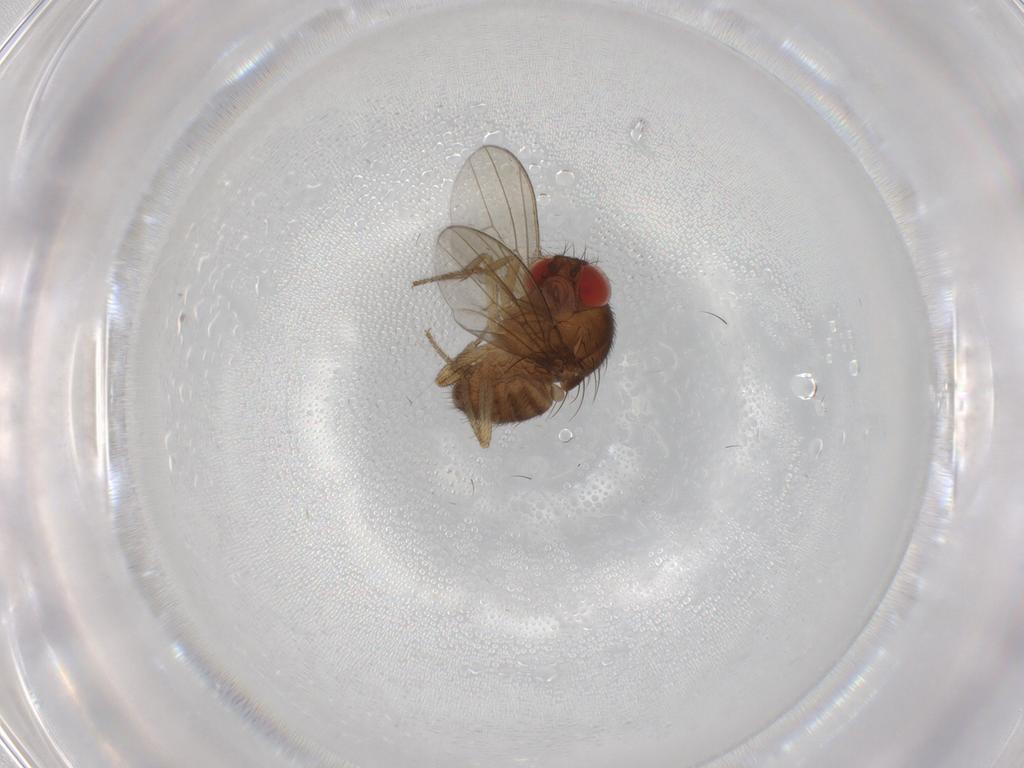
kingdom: Animalia
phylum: Arthropoda
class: Insecta
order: Diptera
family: Drosophilidae
